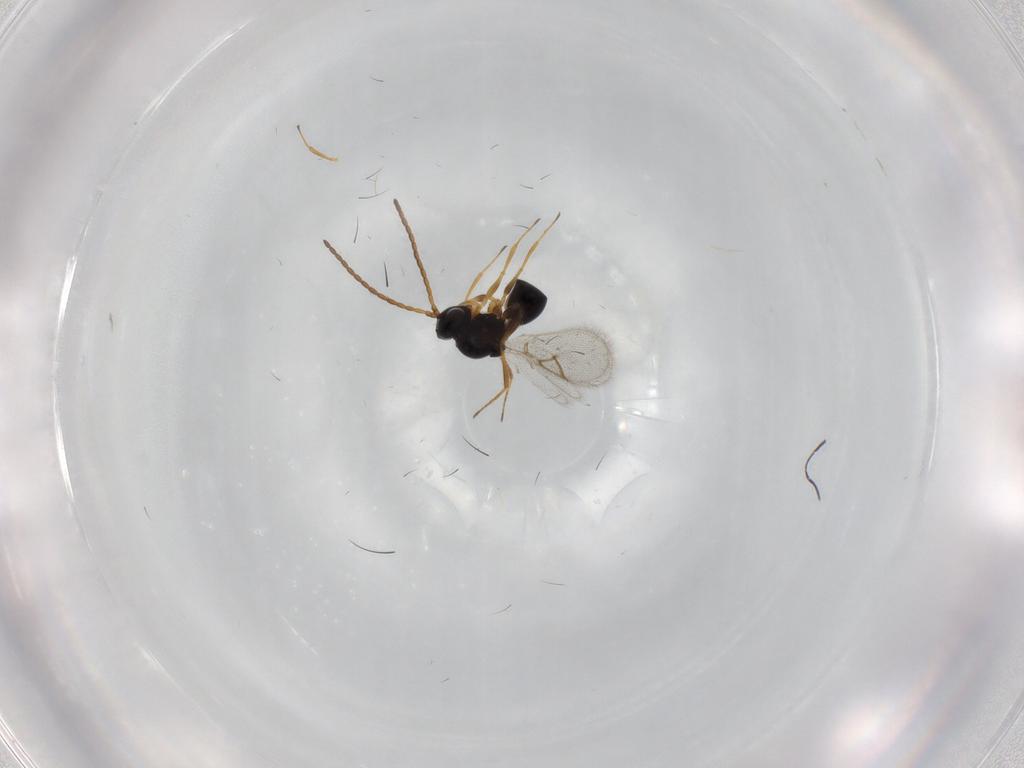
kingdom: Animalia
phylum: Arthropoda
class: Insecta
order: Hymenoptera
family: Figitidae
